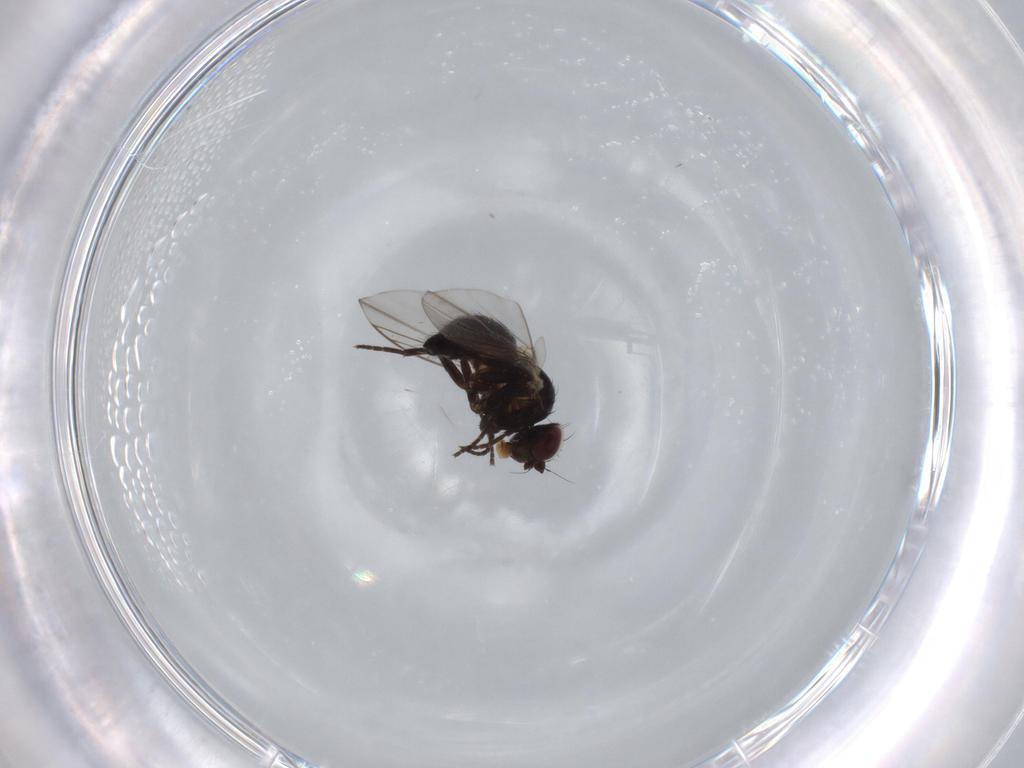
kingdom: Animalia
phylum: Arthropoda
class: Insecta
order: Diptera
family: Milichiidae
